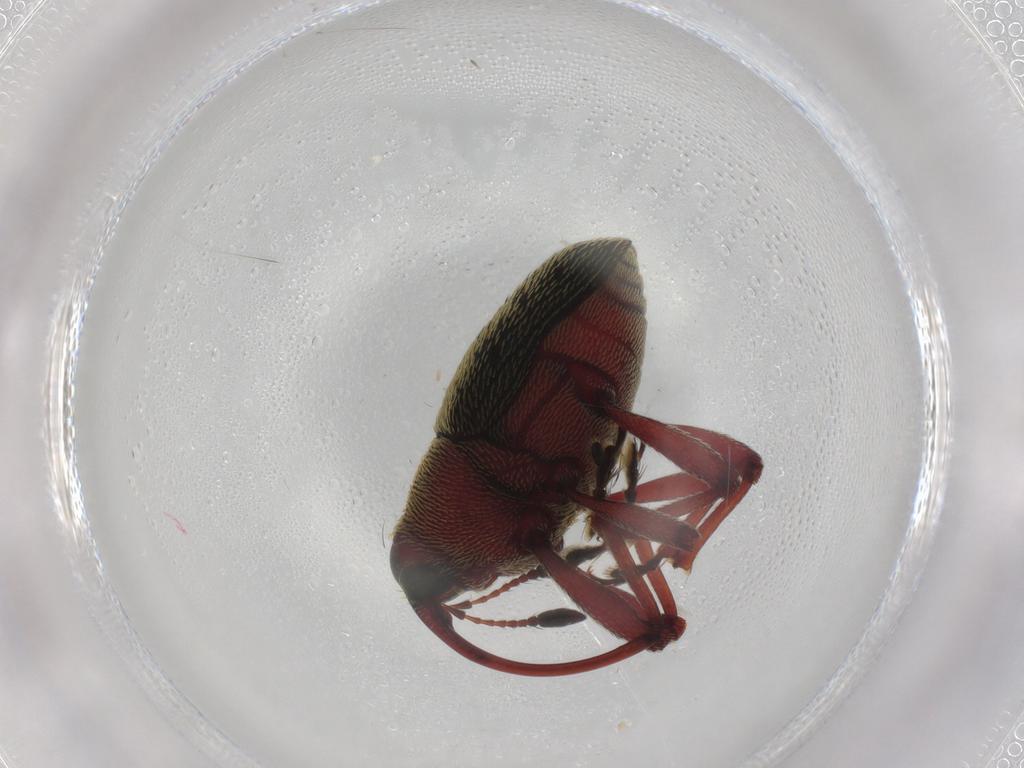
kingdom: Animalia
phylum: Arthropoda
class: Insecta
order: Coleoptera
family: Curculionidae
